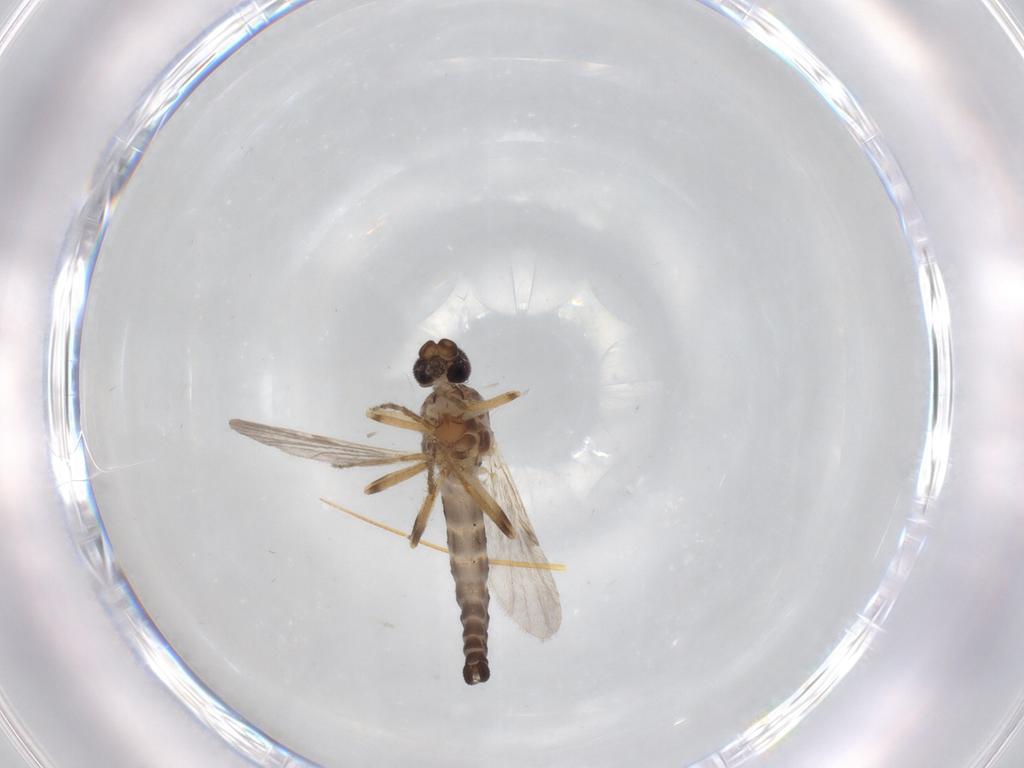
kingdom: Animalia
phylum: Arthropoda
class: Insecta
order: Diptera
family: Ceratopogonidae
